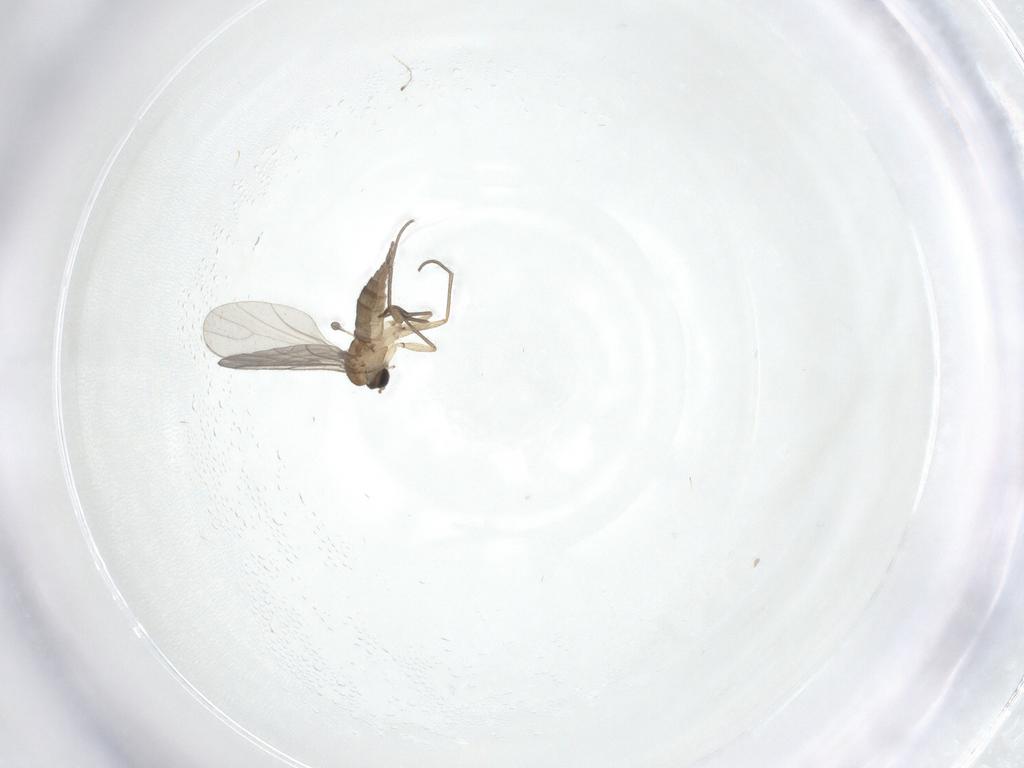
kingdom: Animalia
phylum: Arthropoda
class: Insecta
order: Diptera
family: Sciaridae
